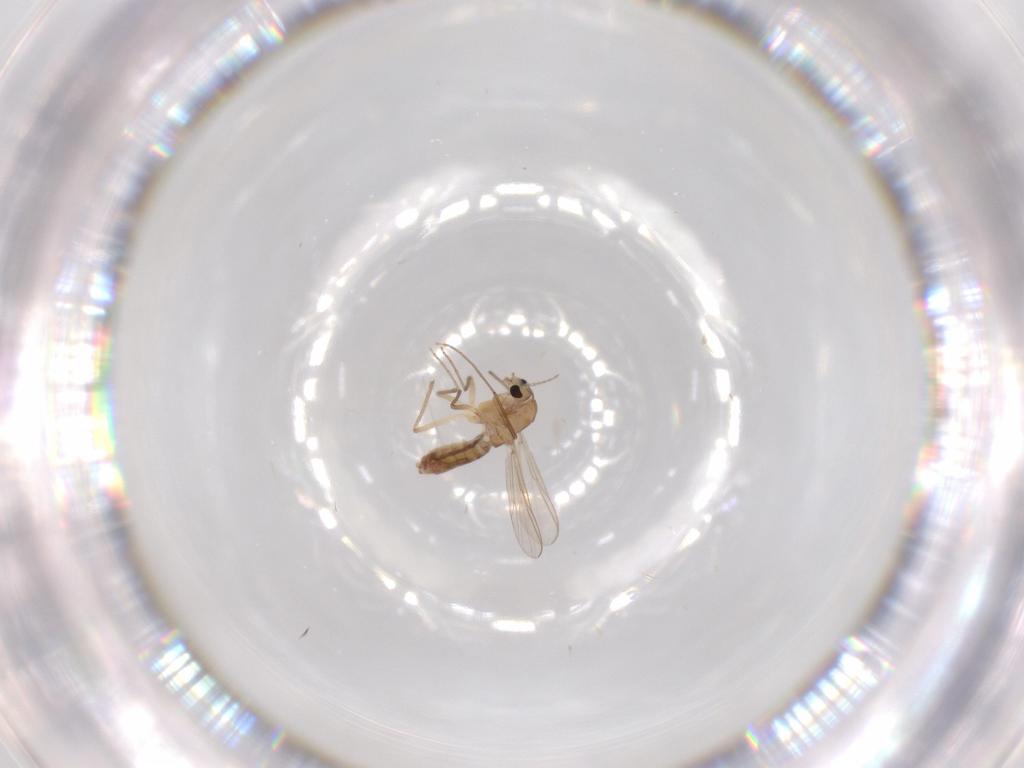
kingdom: Animalia
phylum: Arthropoda
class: Insecta
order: Diptera
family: Chironomidae
